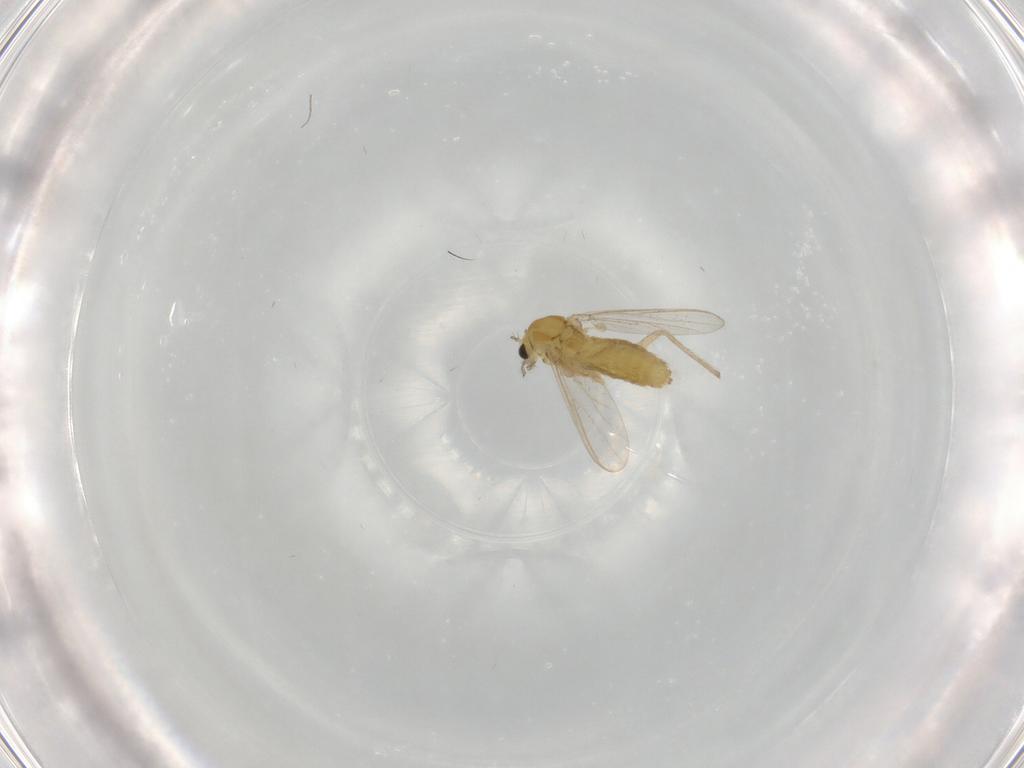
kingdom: Animalia
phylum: Arthropoda
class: Insecta
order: Diptera
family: Chironomidae
